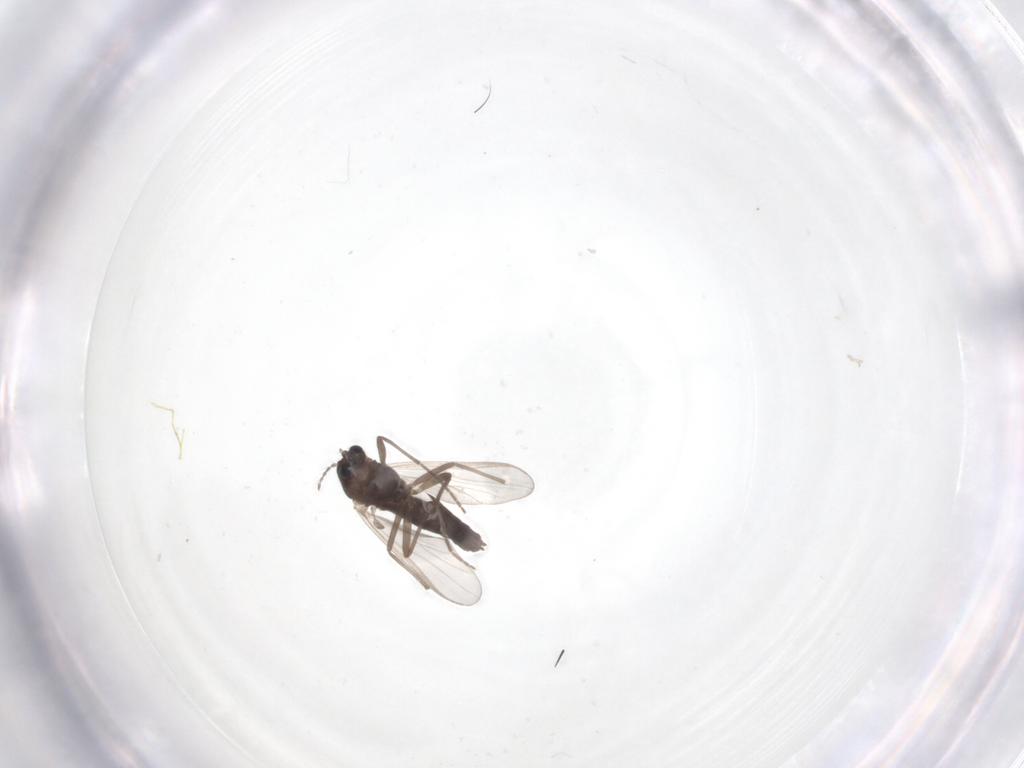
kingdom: Animalia
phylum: Arthropoda
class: Insecta
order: Diptera
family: Chironomidae
